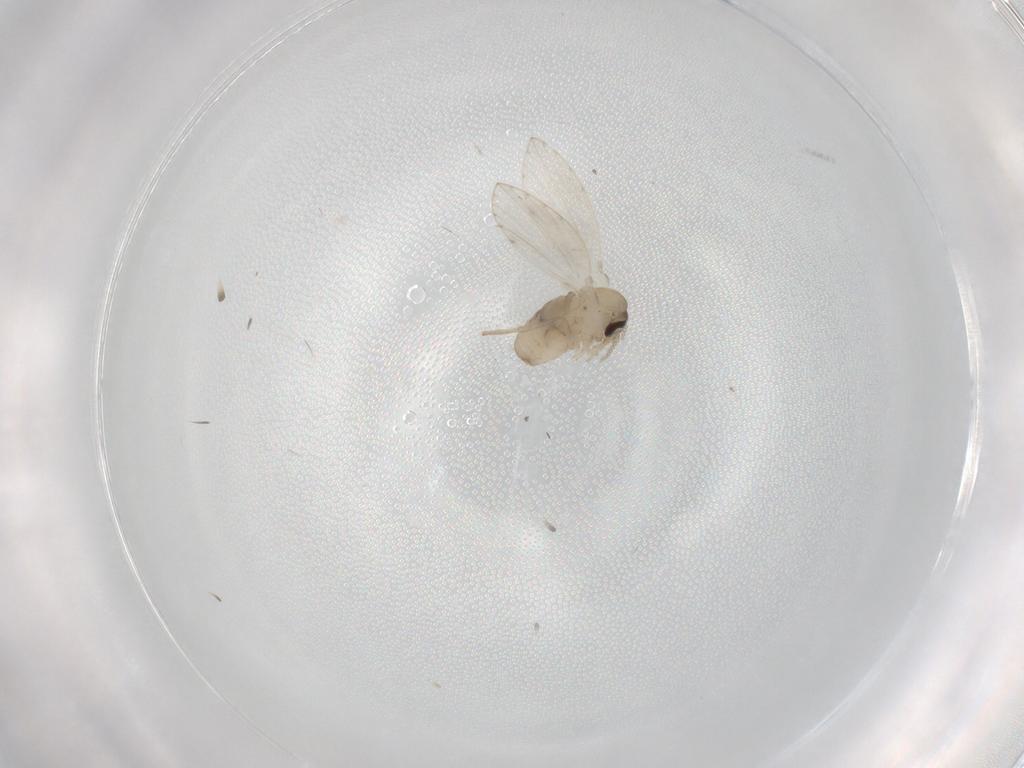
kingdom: Animalia
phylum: Arthropoda
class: Insecta
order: Diptera
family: Psychodidae
